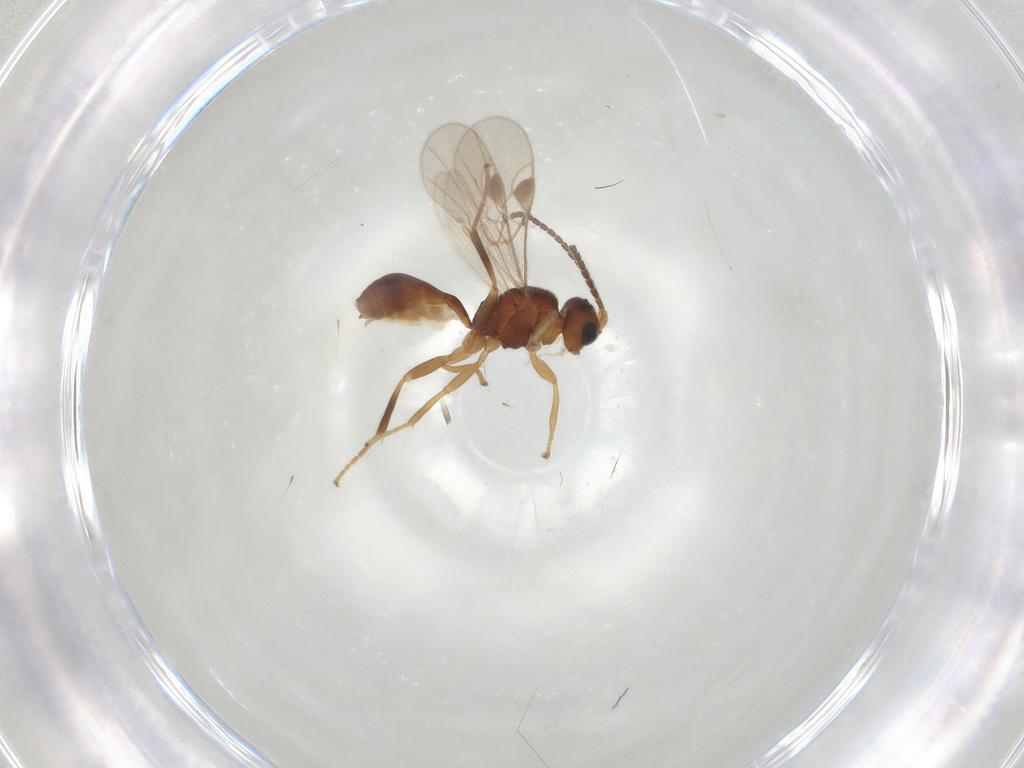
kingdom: Animalia
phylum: Arthropoda
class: Insecta
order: Hymenoptera
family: Braconidae
